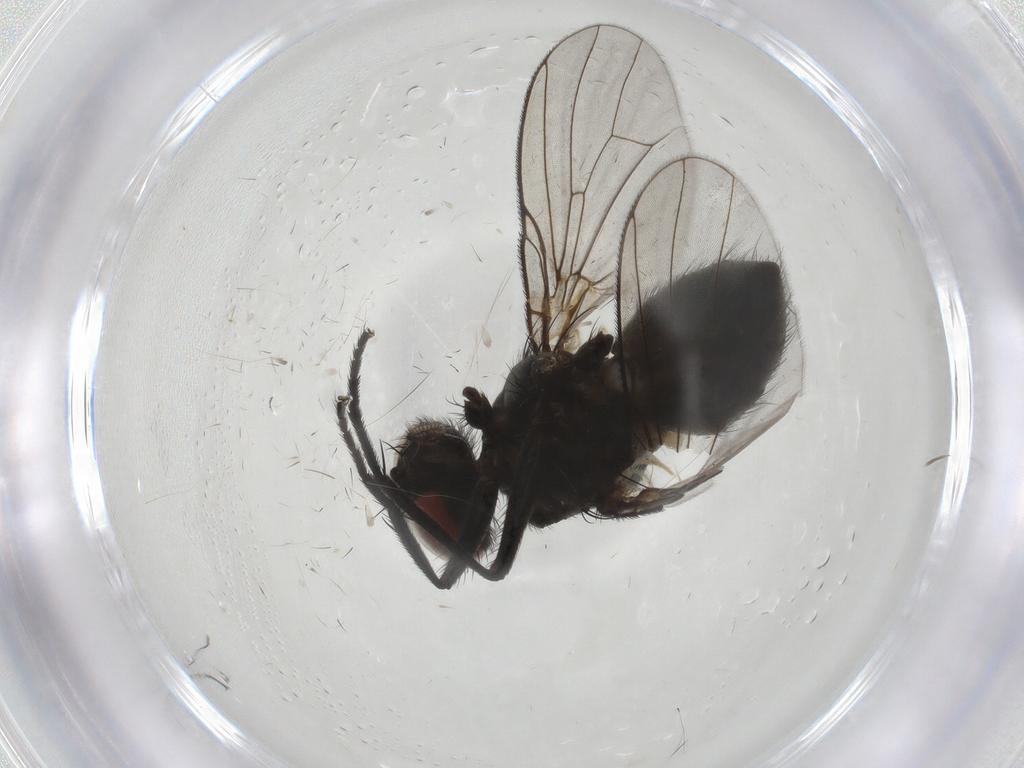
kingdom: Animalia
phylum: Arthropoda
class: Insecta
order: Diptera
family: Muscidae
